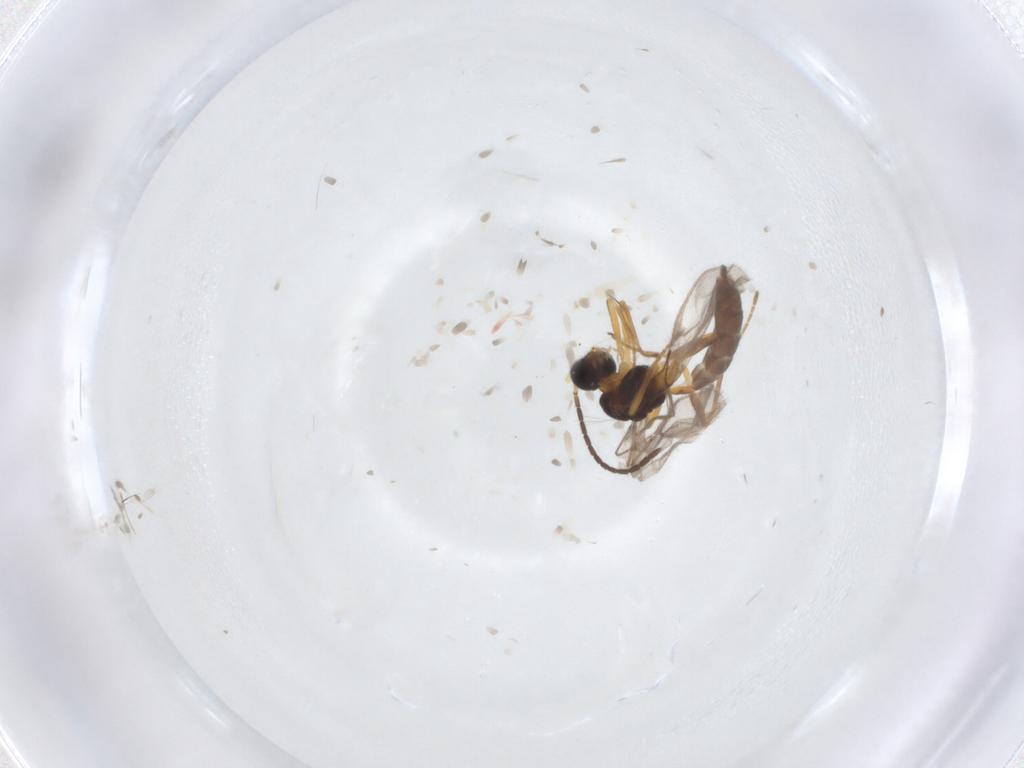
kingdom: Animalia
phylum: Arthropoda
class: Insecta
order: Hymenoptera
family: Braconidae
